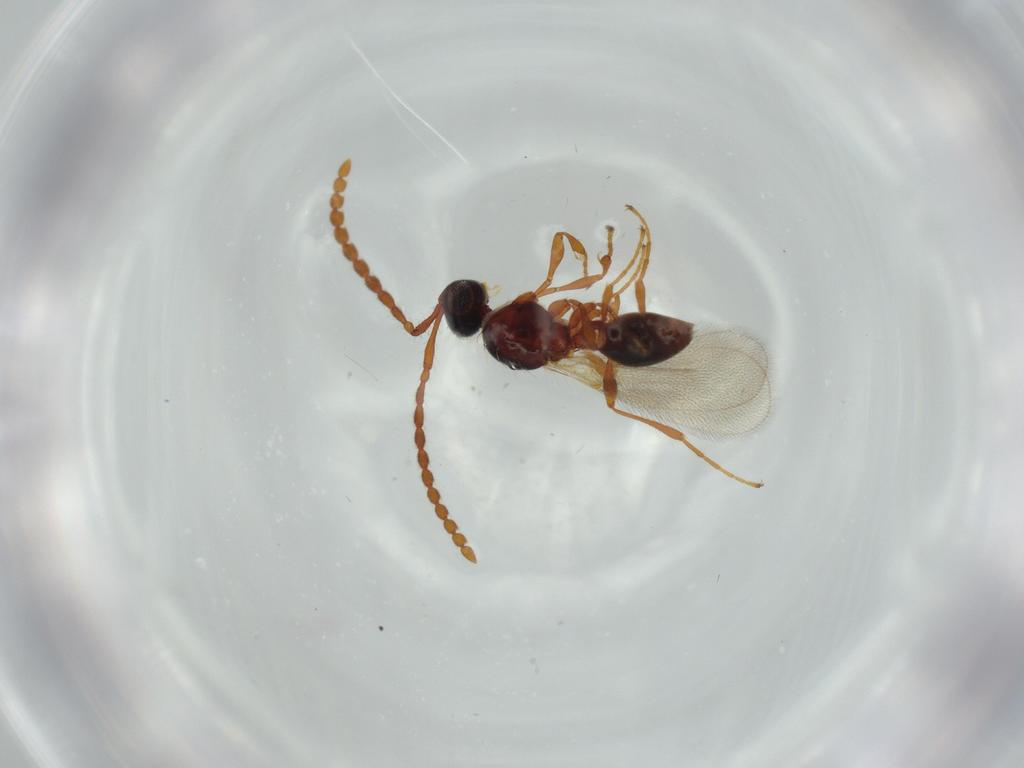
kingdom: Animalia
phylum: Arthropoda
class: Insecta
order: Hymenoptera
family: Diapriidae
